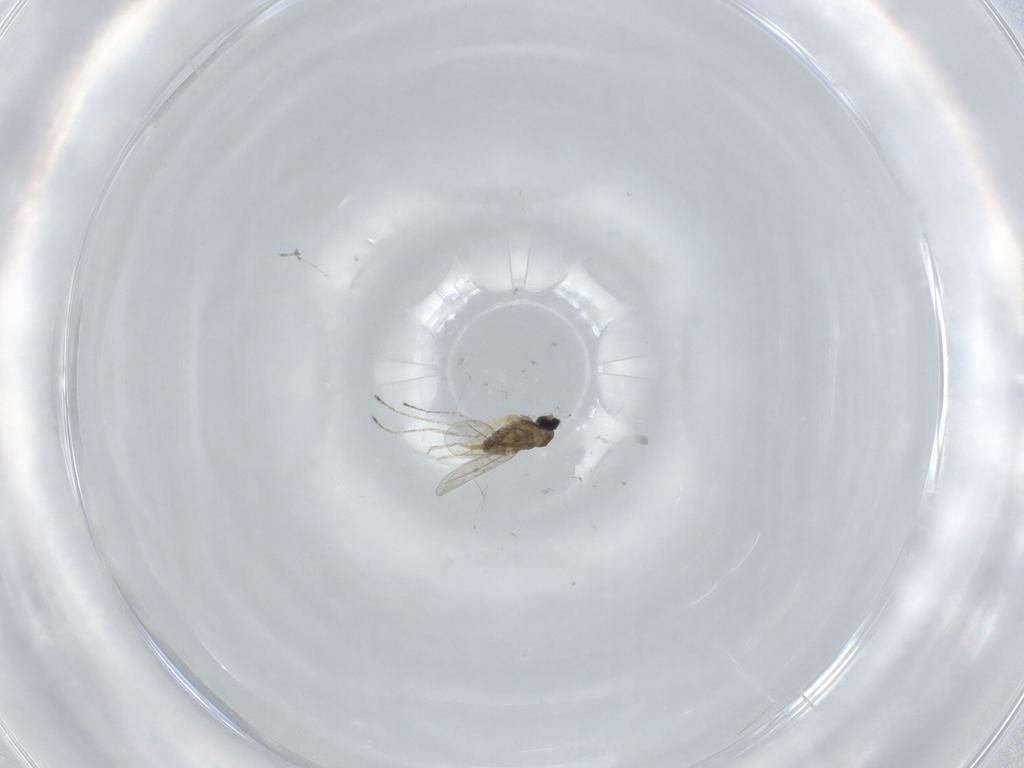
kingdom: Animalia
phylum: Arthropoda
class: Insecta
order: Diptera
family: Cecidomyiidae
